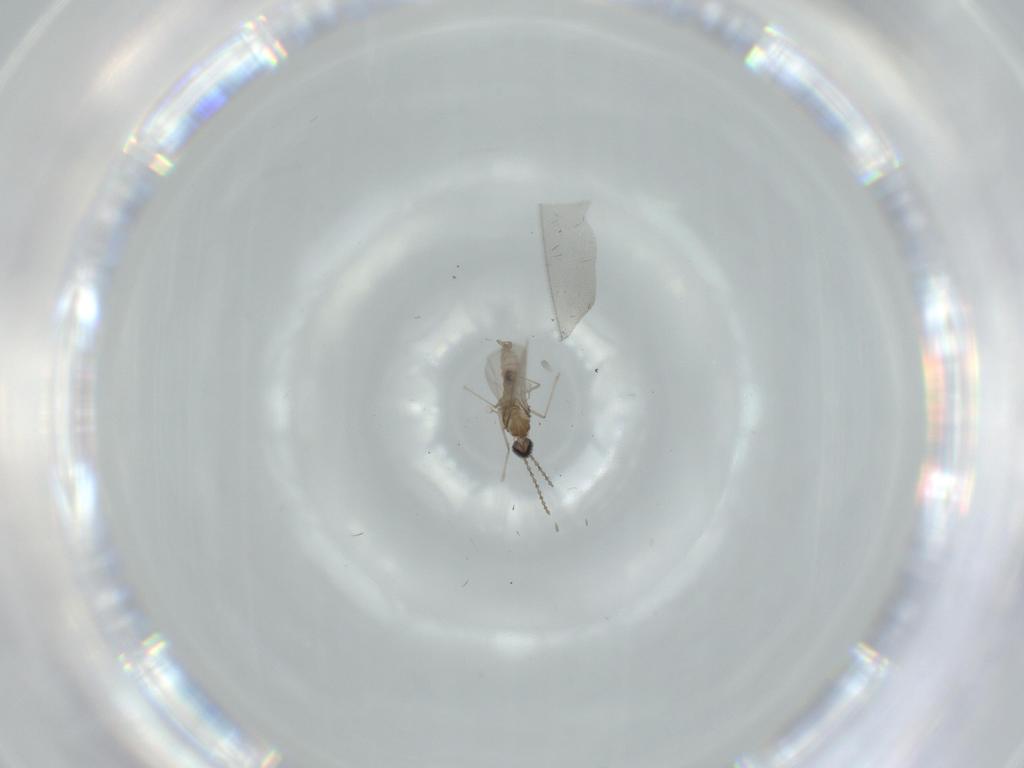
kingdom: Animalia
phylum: Arthropoda
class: Insecta
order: Diptera
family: Cecidomyiidae
